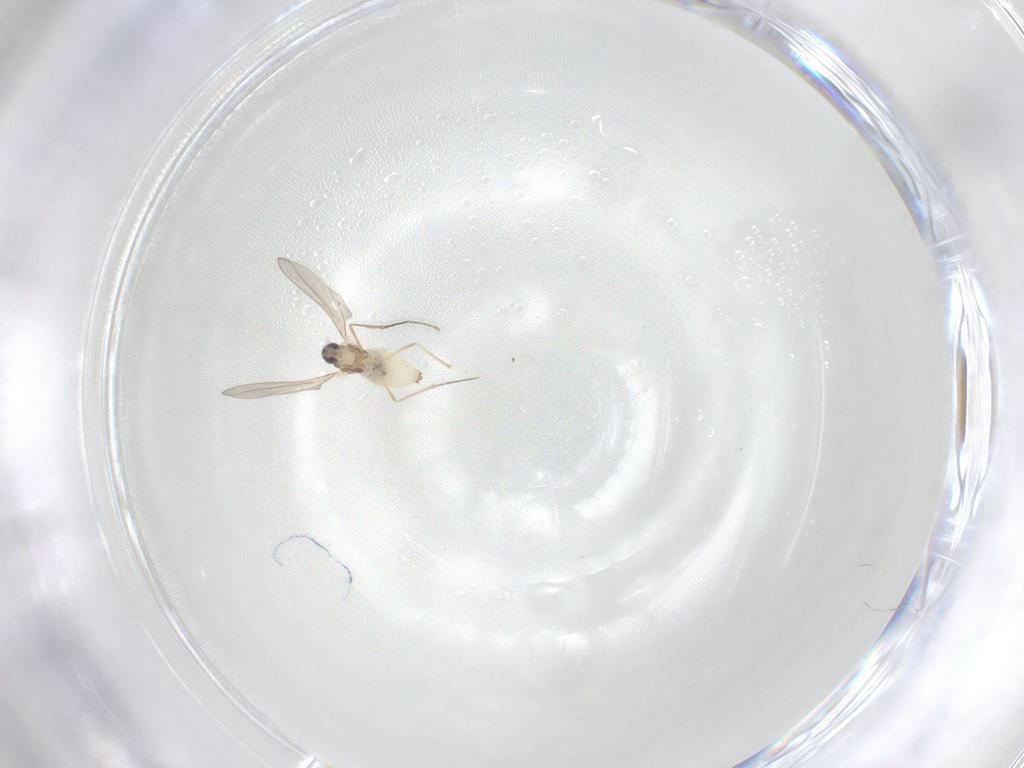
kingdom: Animalia
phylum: Arthropoda
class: Insecta
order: Diptera
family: Cecidomyiidae
